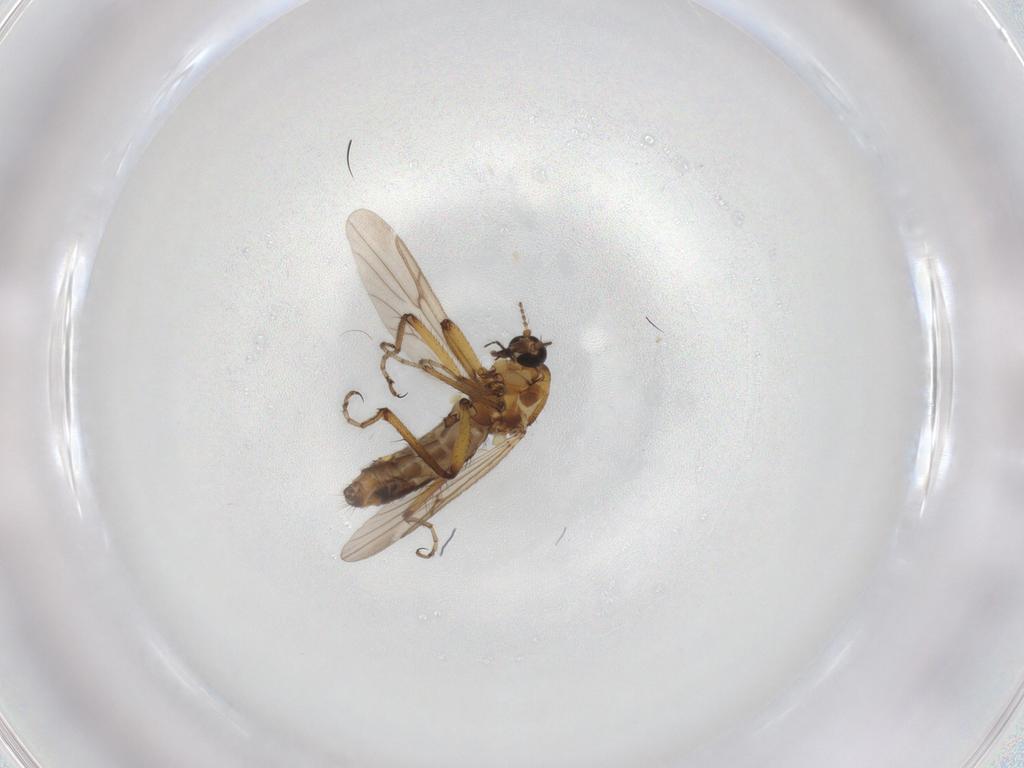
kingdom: Animalia
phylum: Arthropoda
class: Insecta
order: Diptera
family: Ceratopogonidae
